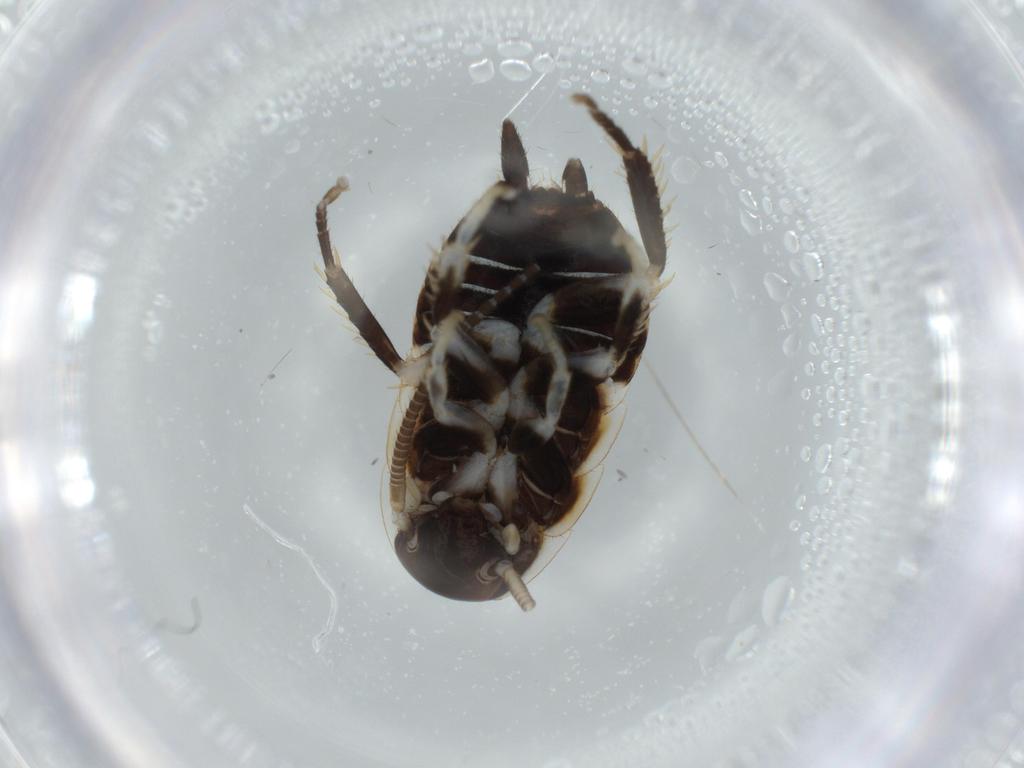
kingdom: Animalia
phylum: Arthropoda
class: Insecta
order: Blattodea
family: Ectobiidae
